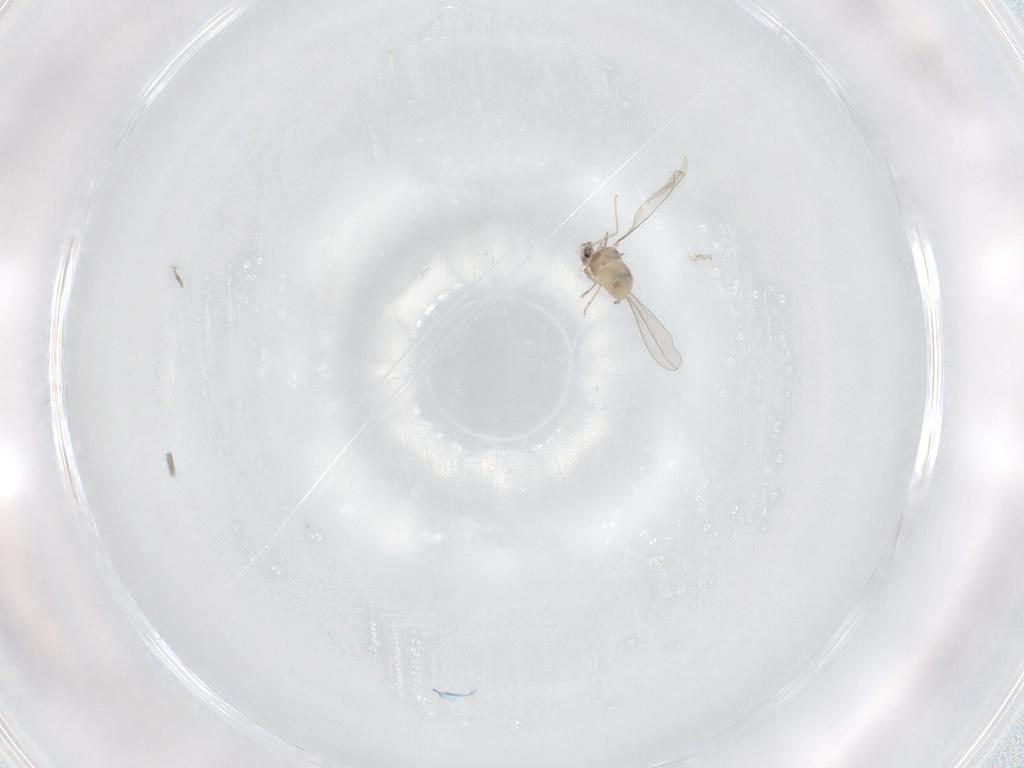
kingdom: Animalia
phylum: Arthropoda
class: Insecta
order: Diptera
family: Cecidomyiidae
